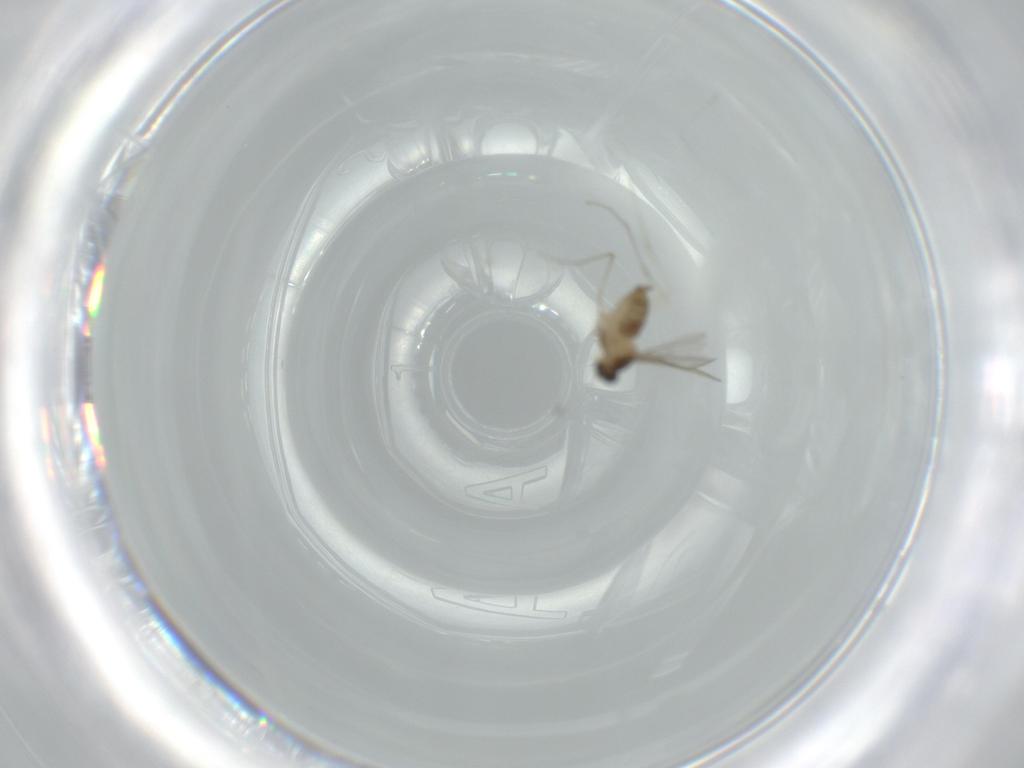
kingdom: Animalia
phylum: Arthropoda
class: Insecta
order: Diptera
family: Cecidomyiidae
